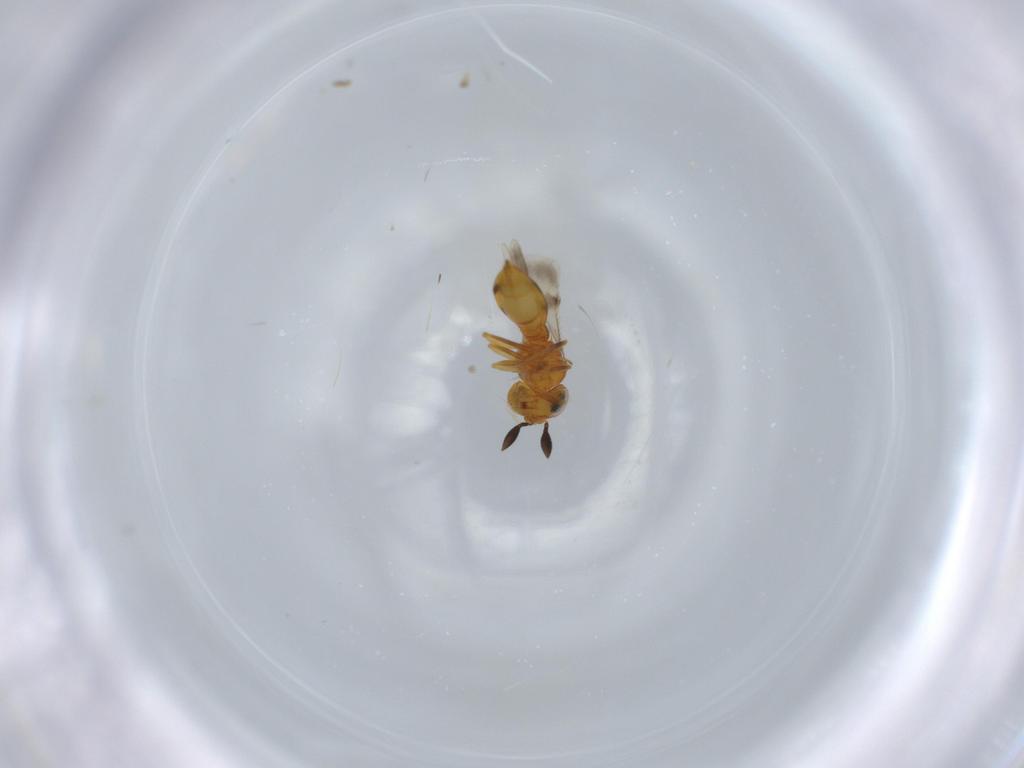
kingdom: Animalia
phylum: Arthropoda
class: Insecta
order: Hymenoptera
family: Scelionidae
